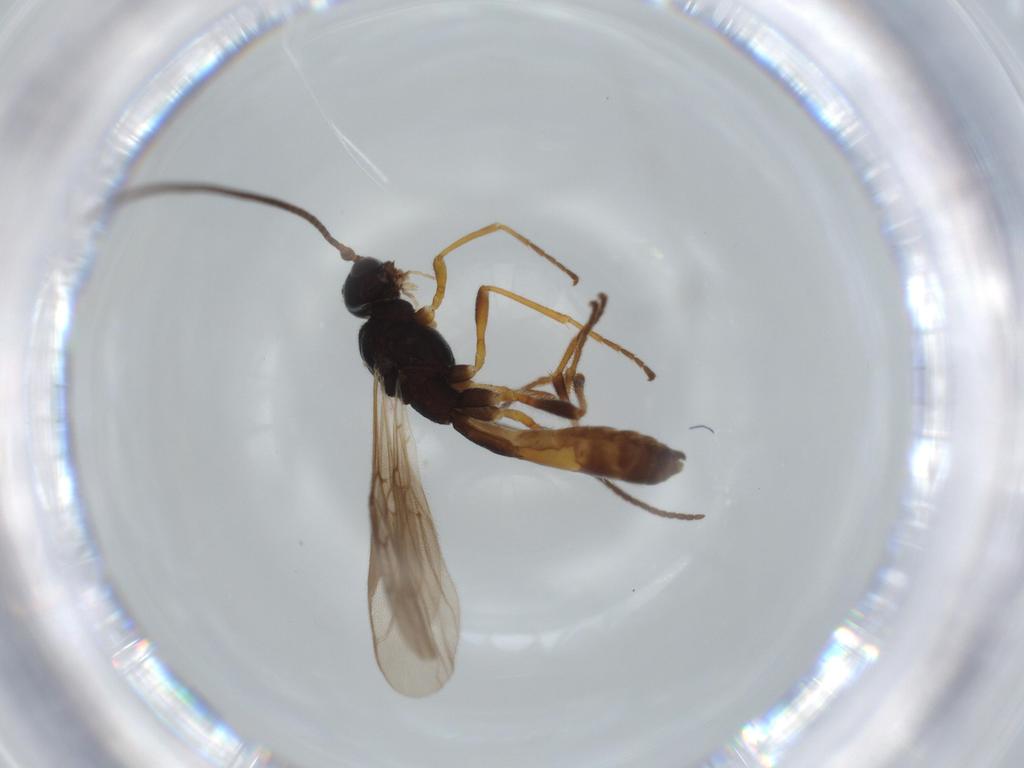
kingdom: Animalia
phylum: Arthropoda
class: Insecta
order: Hymenoptera
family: Braconidae
